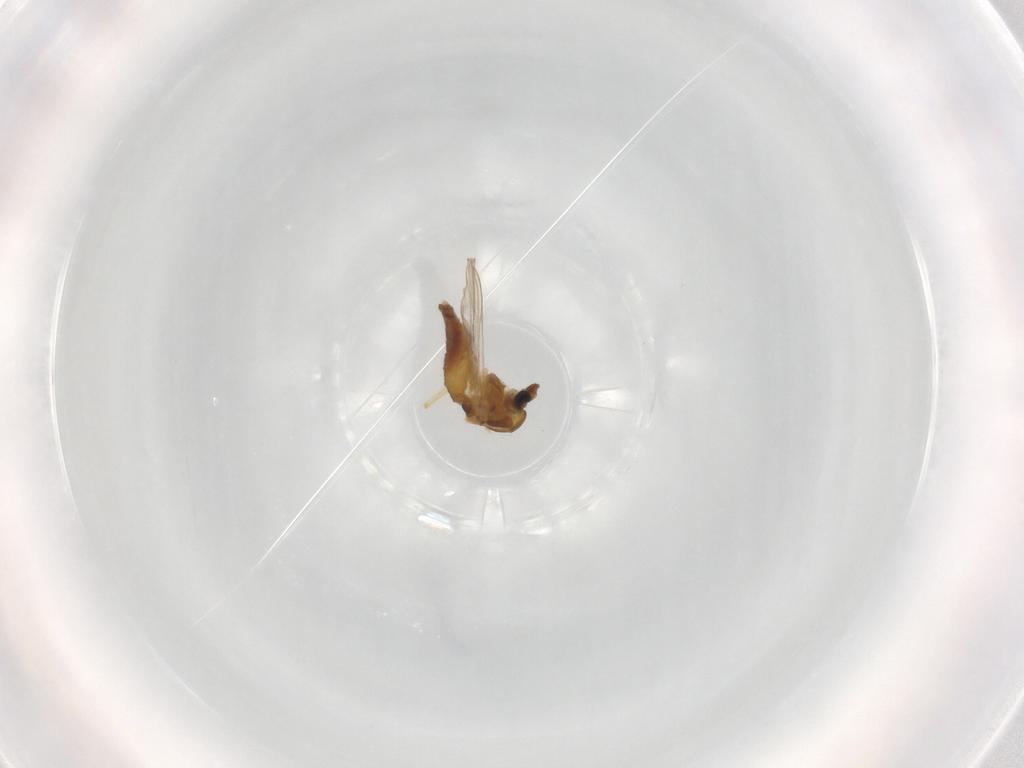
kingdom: Animalia
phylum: Arthropoda
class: Insecta
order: Diptera
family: Chironomidae
